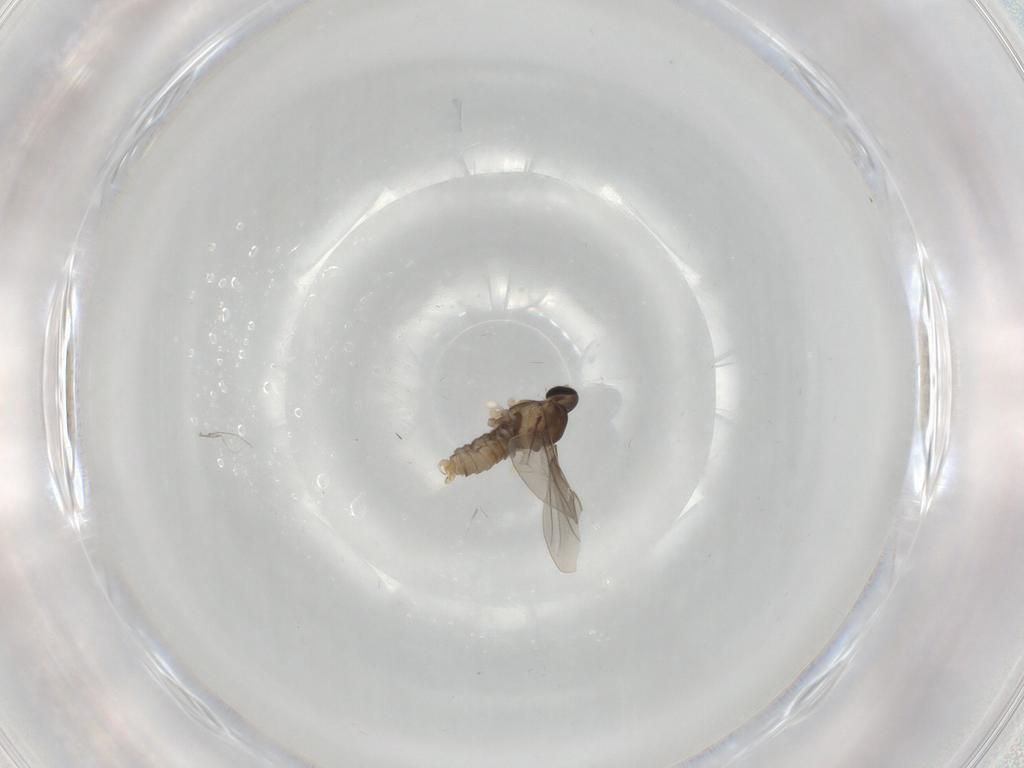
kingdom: Animalia
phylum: Arthropoda
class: Insecta
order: Diptera
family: Cecidomyiidae
